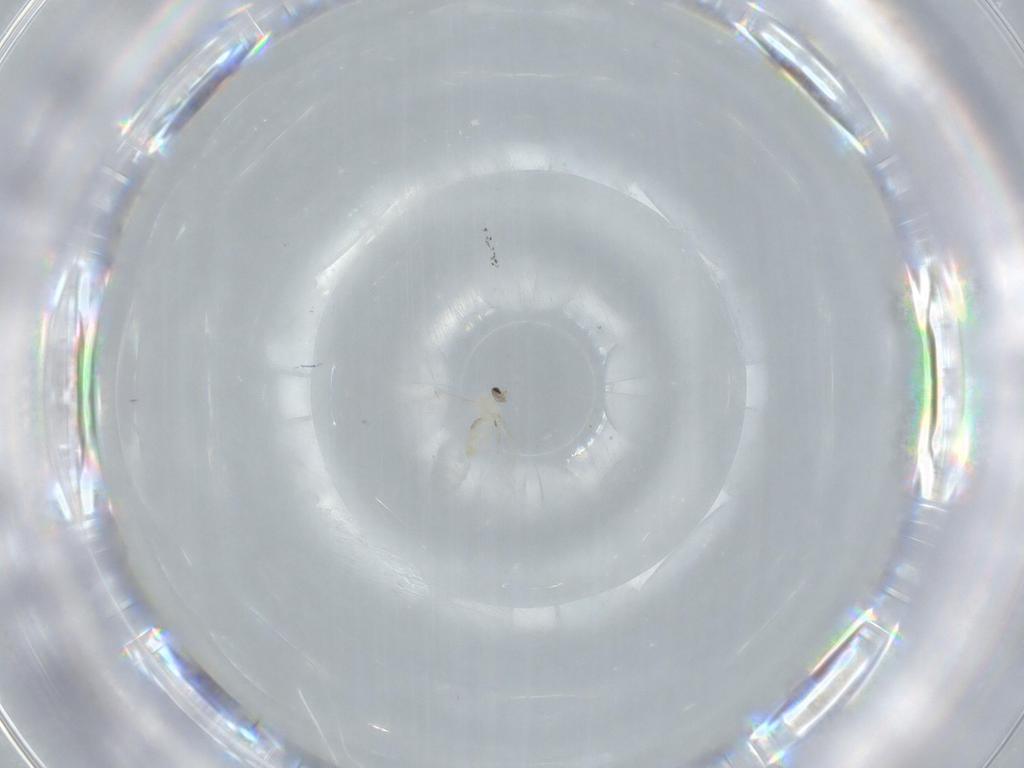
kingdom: Animalia
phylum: Arthropoda
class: Insecta
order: Diptera
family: Cecidomyiidae
